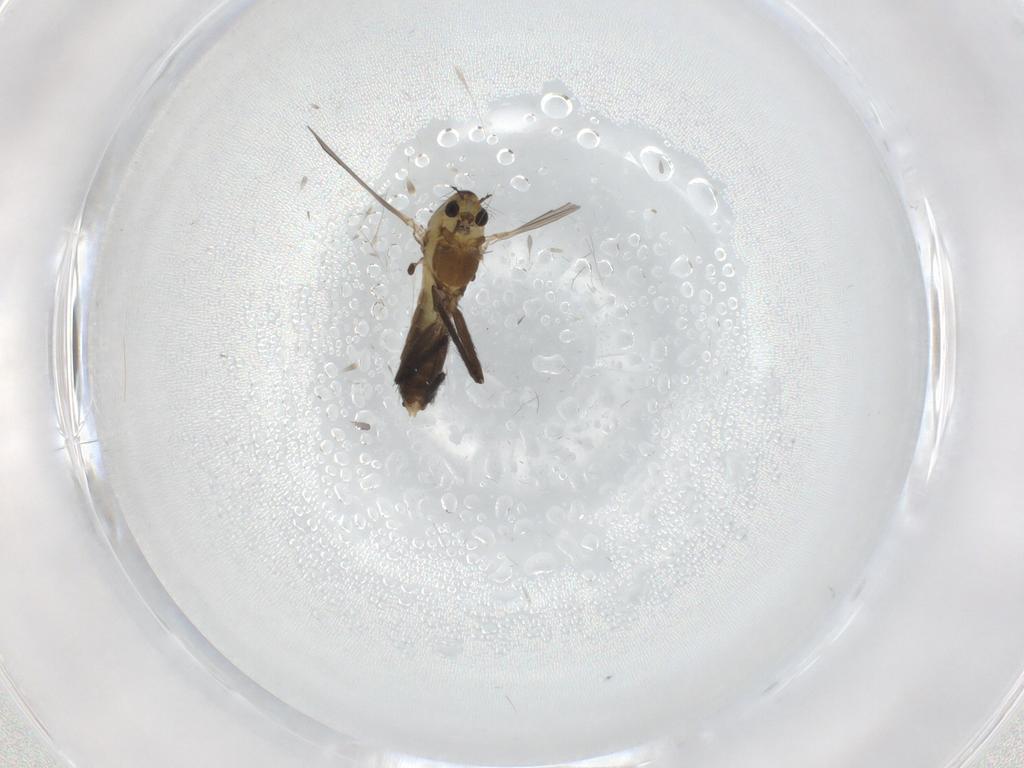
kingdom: Animalia
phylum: Arthropoda
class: Insecta
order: Diptera
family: Chironomidae
